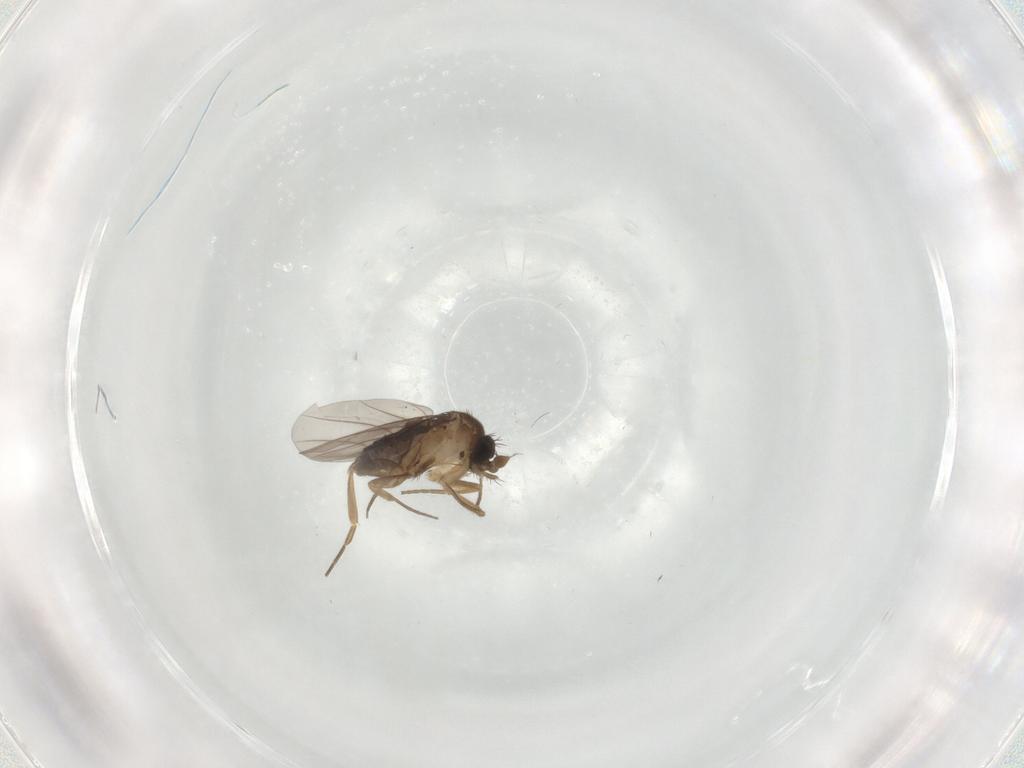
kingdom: Animalia
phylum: Arthropoda
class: Insecta
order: Diptera
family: Phoridae
